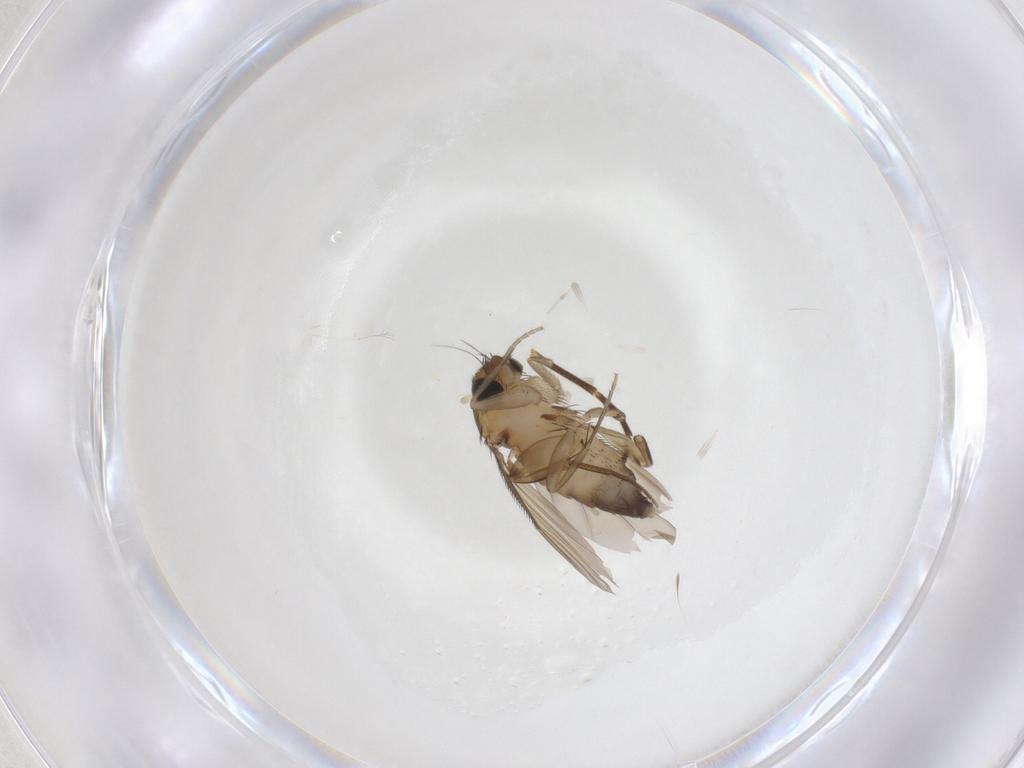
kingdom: Animalia
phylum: Arthropoda
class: Insecta
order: Diptera
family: Phoridae
